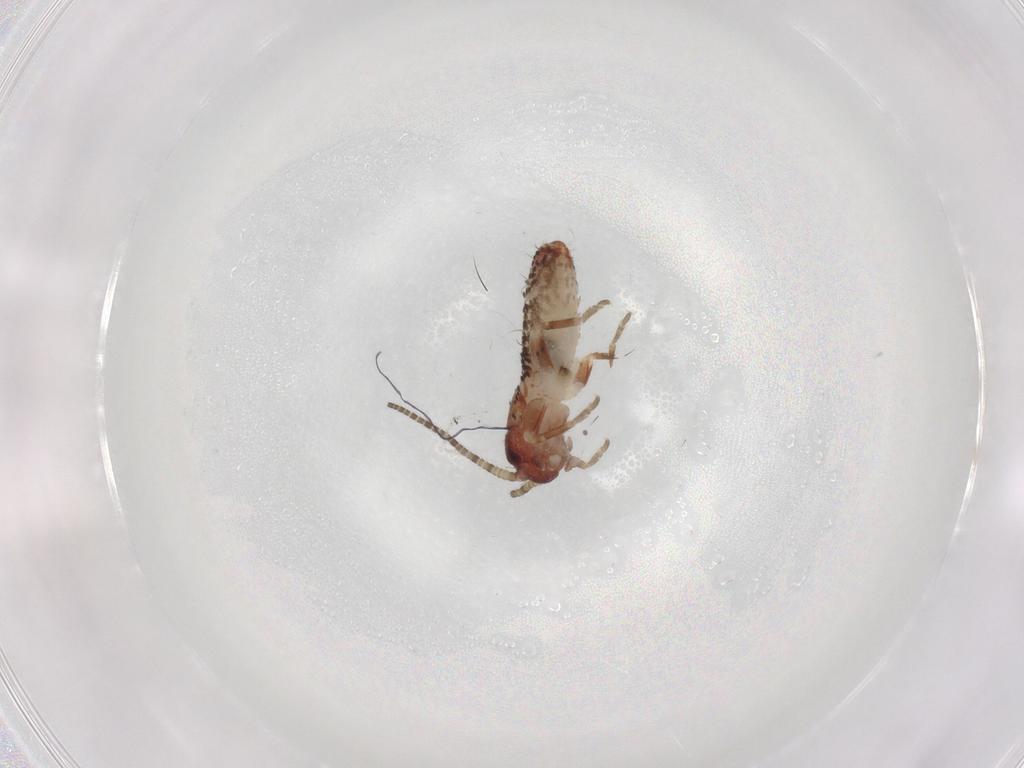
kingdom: Animalia
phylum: Arthropoda
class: Insecta
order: Orthoptera
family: Mogoplistidae
